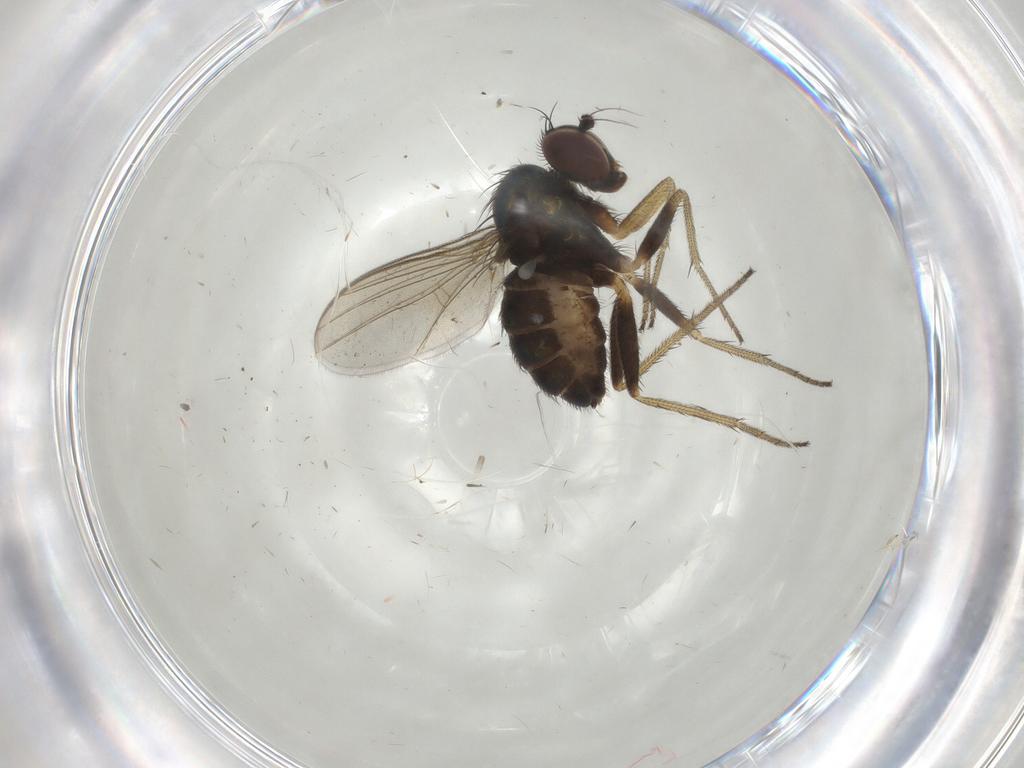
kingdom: Animalia
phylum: Arthropoda
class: Insecta
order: Diptera
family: Dolichopodidae
